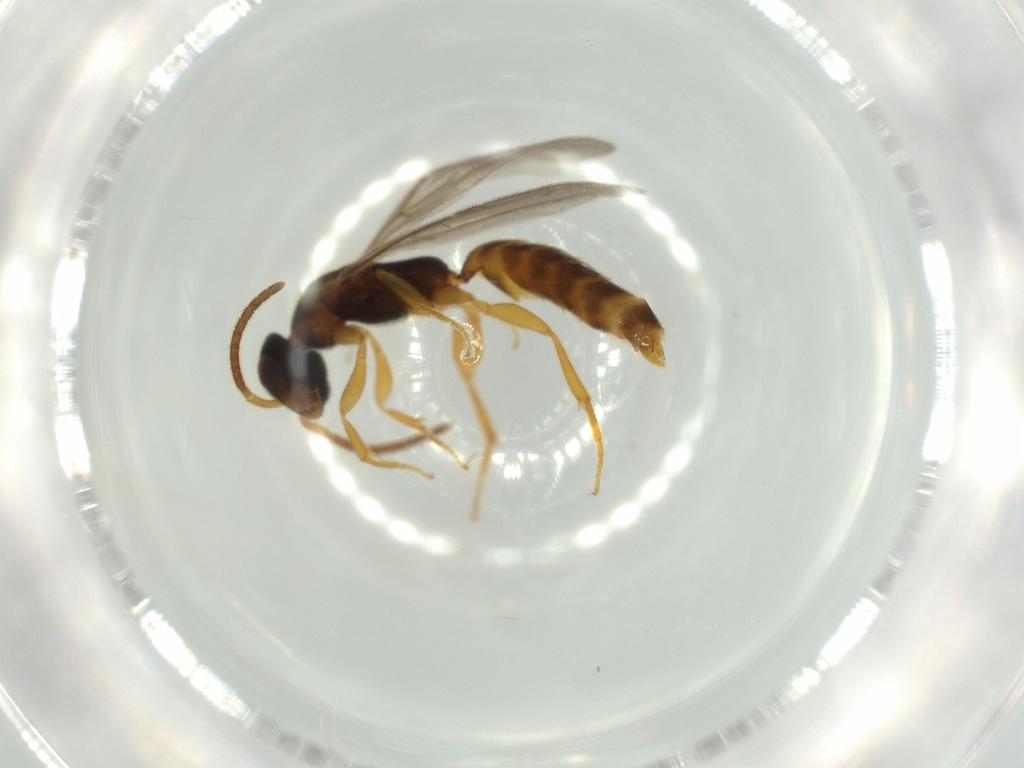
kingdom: Animalia
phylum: Arthropoda
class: Insecta
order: Hymenoptera
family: Bethylidae
